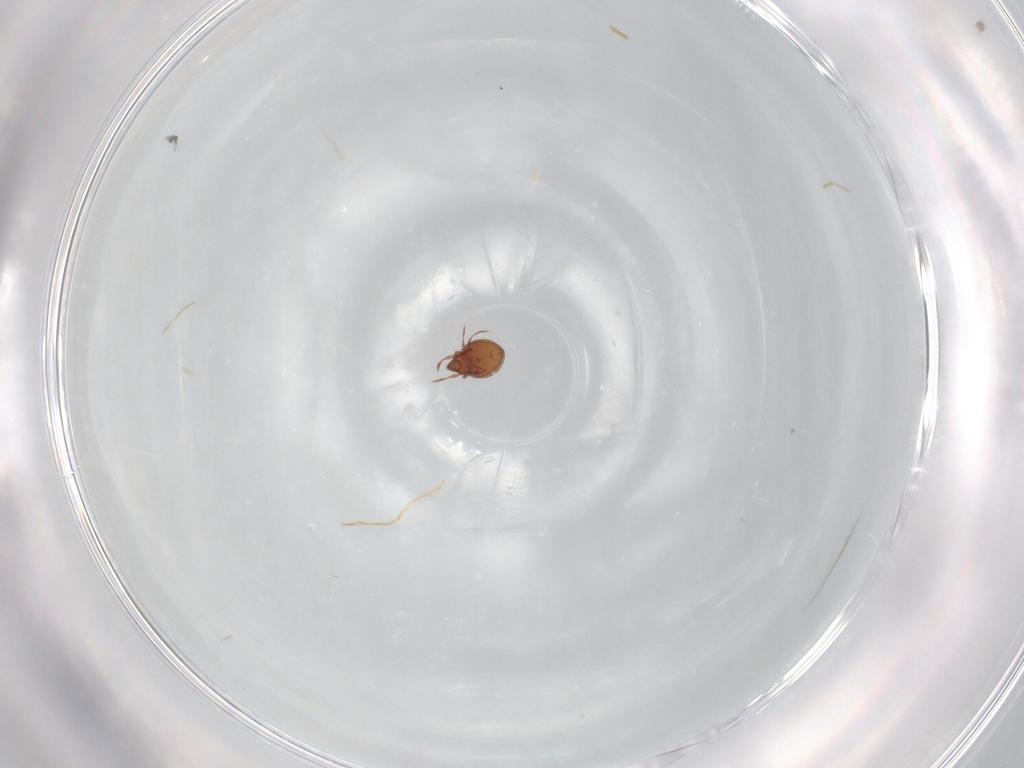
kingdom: Animalia
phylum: Arthropoda
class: Arachnida
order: Sarcoptiformes
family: Oribatulidae
